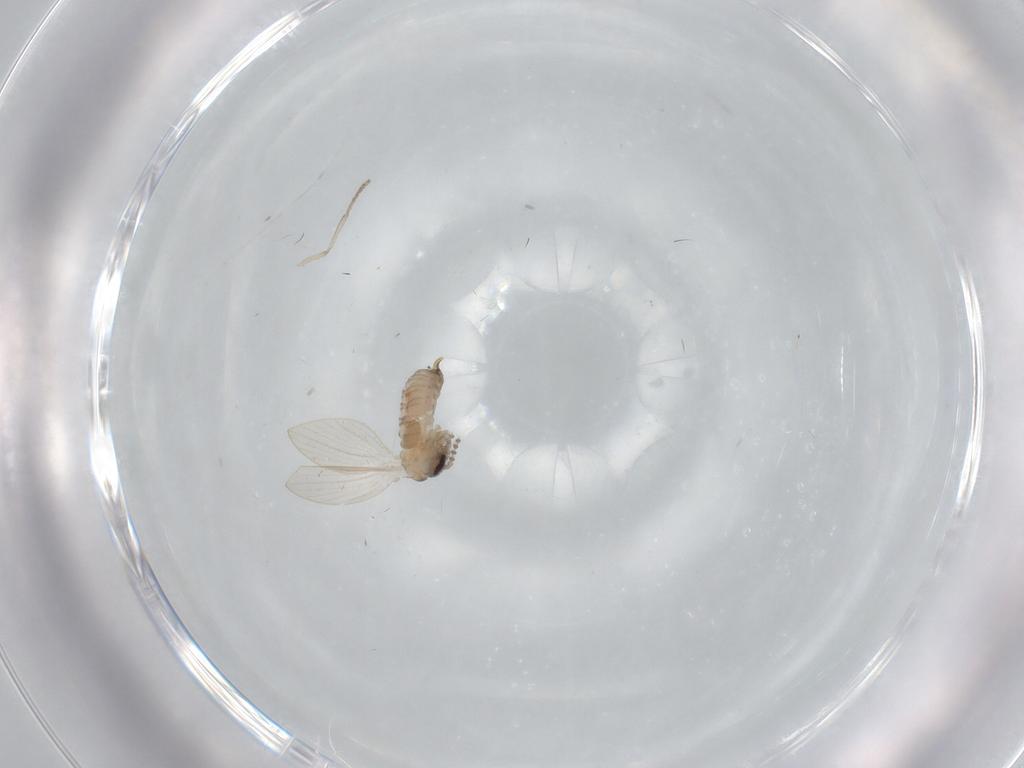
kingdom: Animalia
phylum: Arthropoda
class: Insecta
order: Diptera
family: Psychodidae
